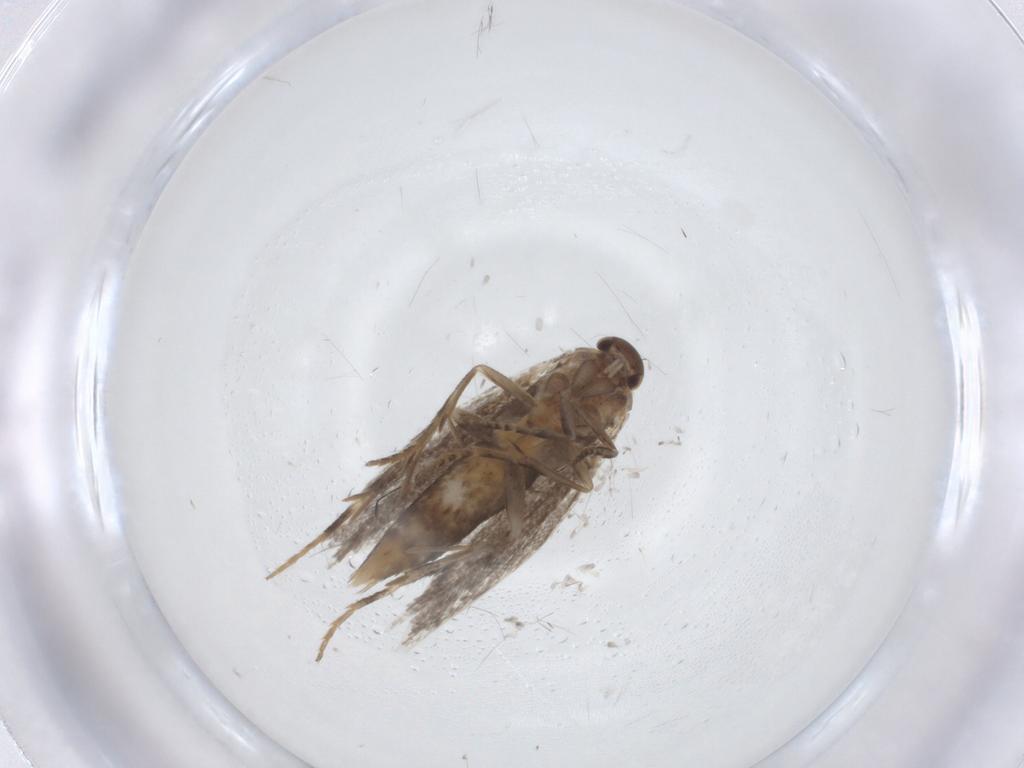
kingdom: Animalia
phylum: Arthropoda
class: Insecta
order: Lepidoptera
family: Elachistidae
